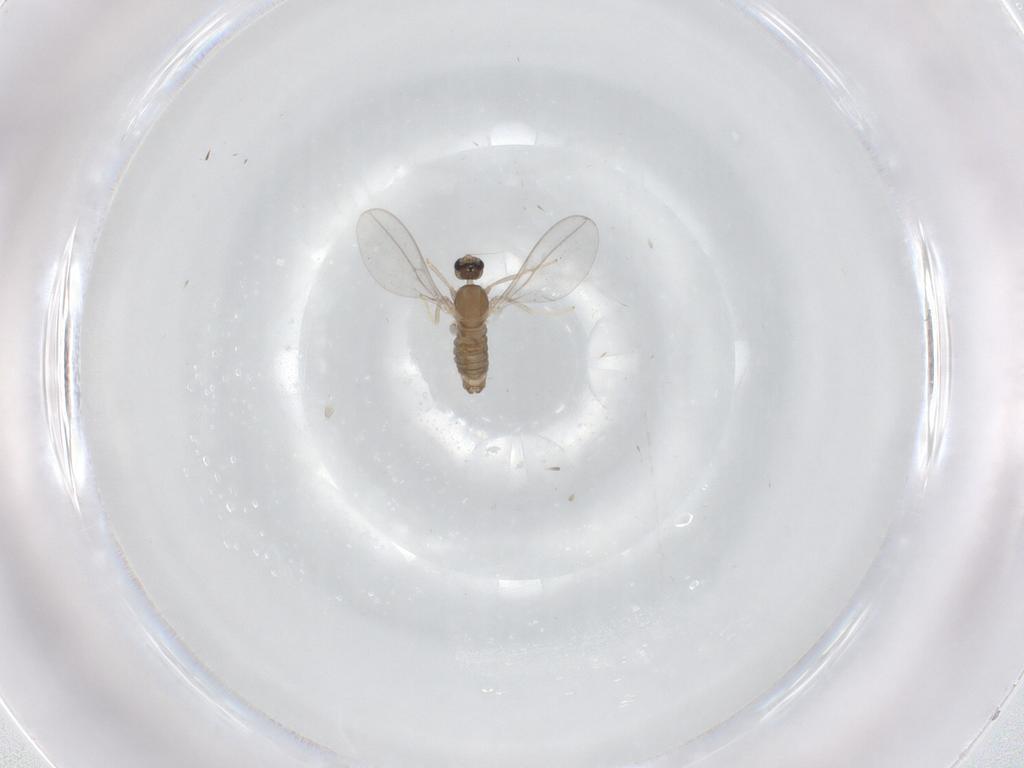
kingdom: Animalia
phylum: Arthropoda
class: Insecta
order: Diptera
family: Cecidomyiidae
